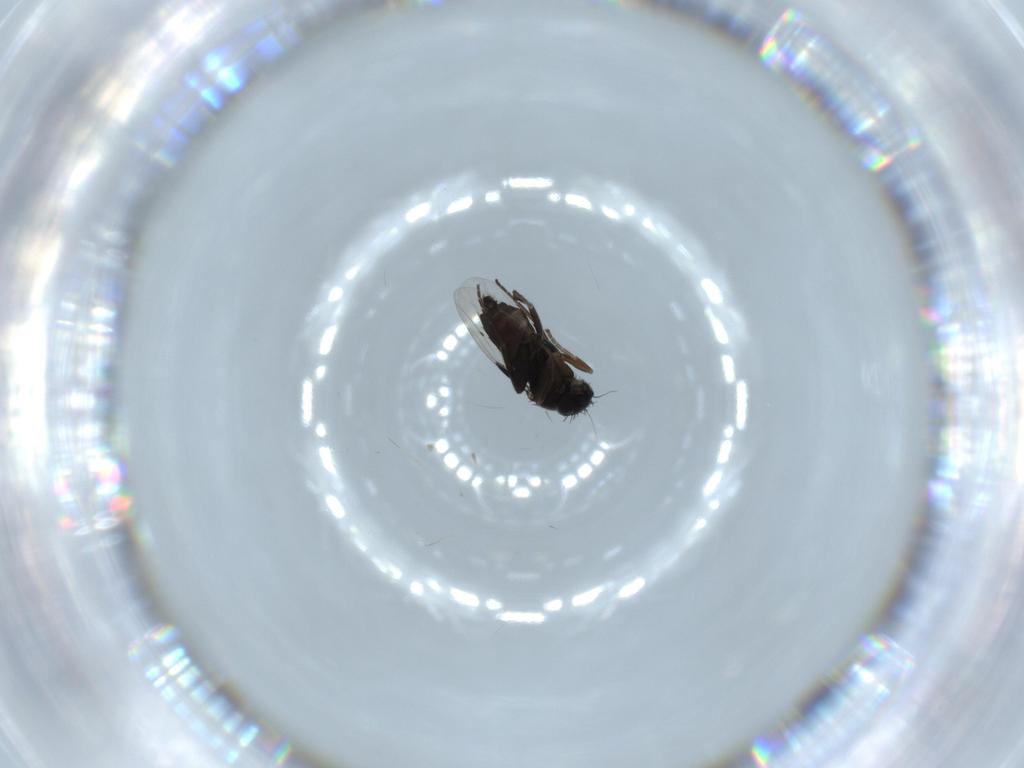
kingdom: Animalia
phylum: Arthropoda
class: Insecta
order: Diptera
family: Phoridae
